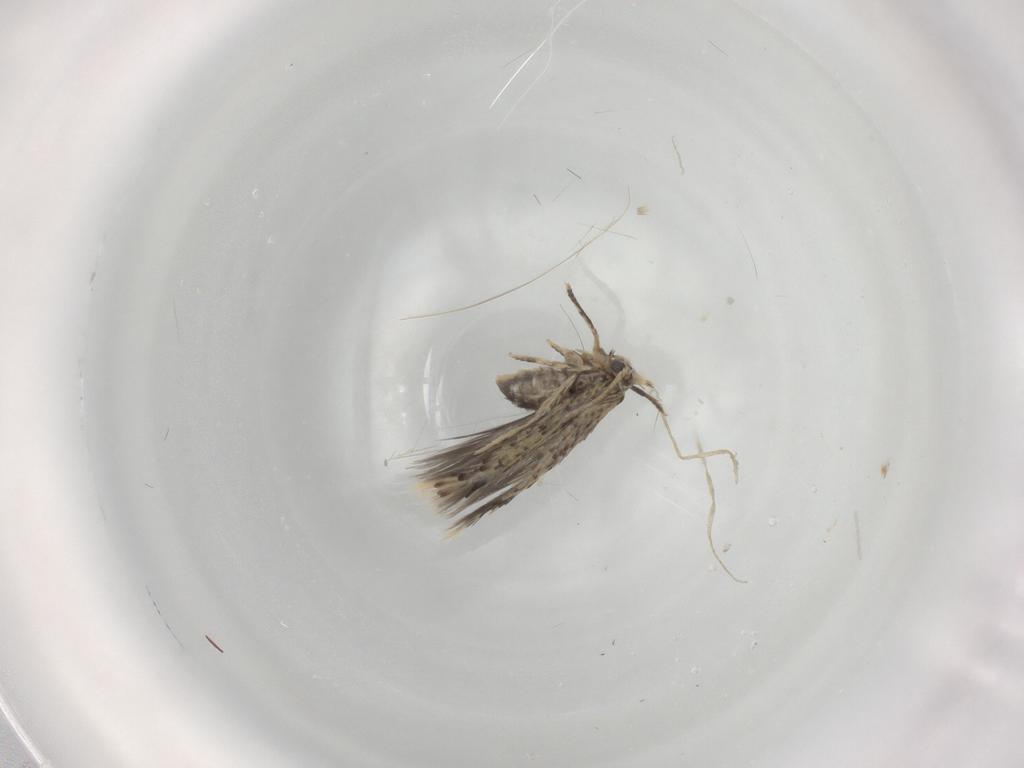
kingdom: Animalia
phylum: Arthropoda
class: Insecta
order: Lepidoptera
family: Nepticulidae
